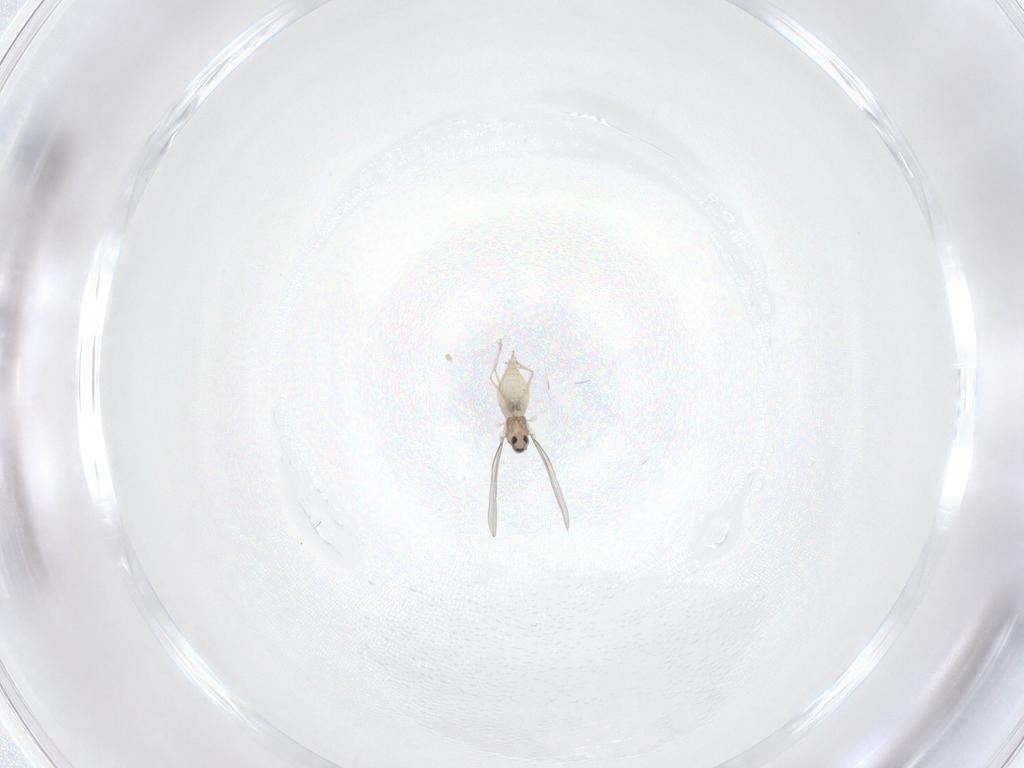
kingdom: Animalia
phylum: Arthropoda
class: Insecta
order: Diptera
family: Cecidomyiidae
